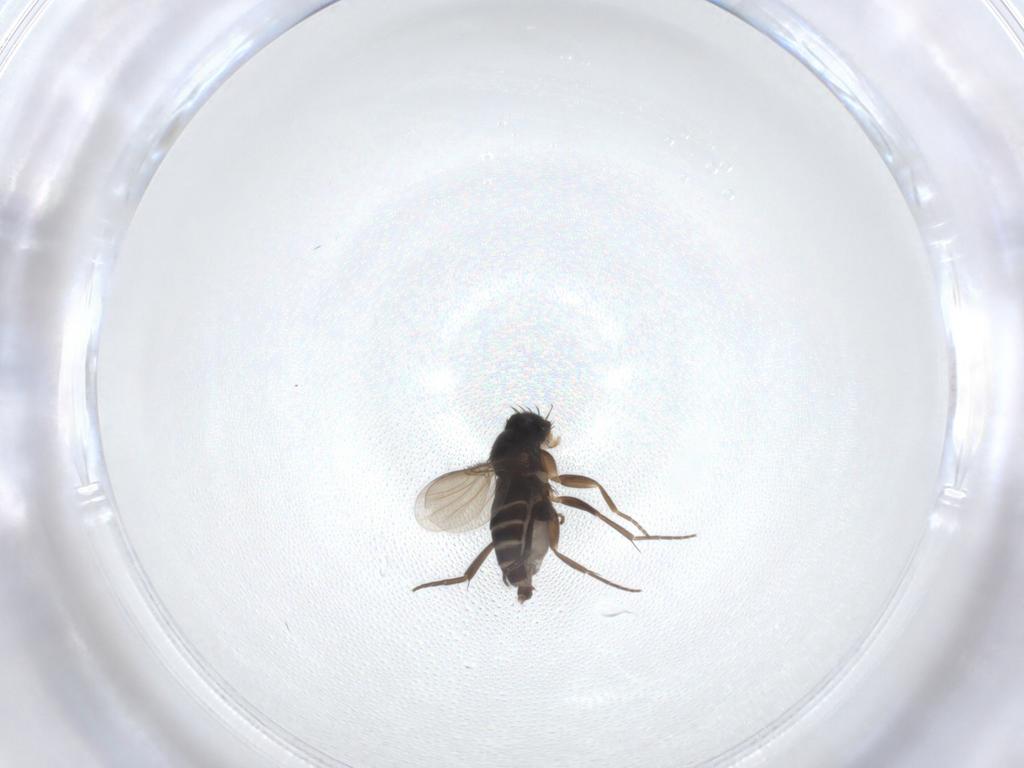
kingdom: Animalia
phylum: Arthropoda
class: Insecta
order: Diptera
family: Phoridae
